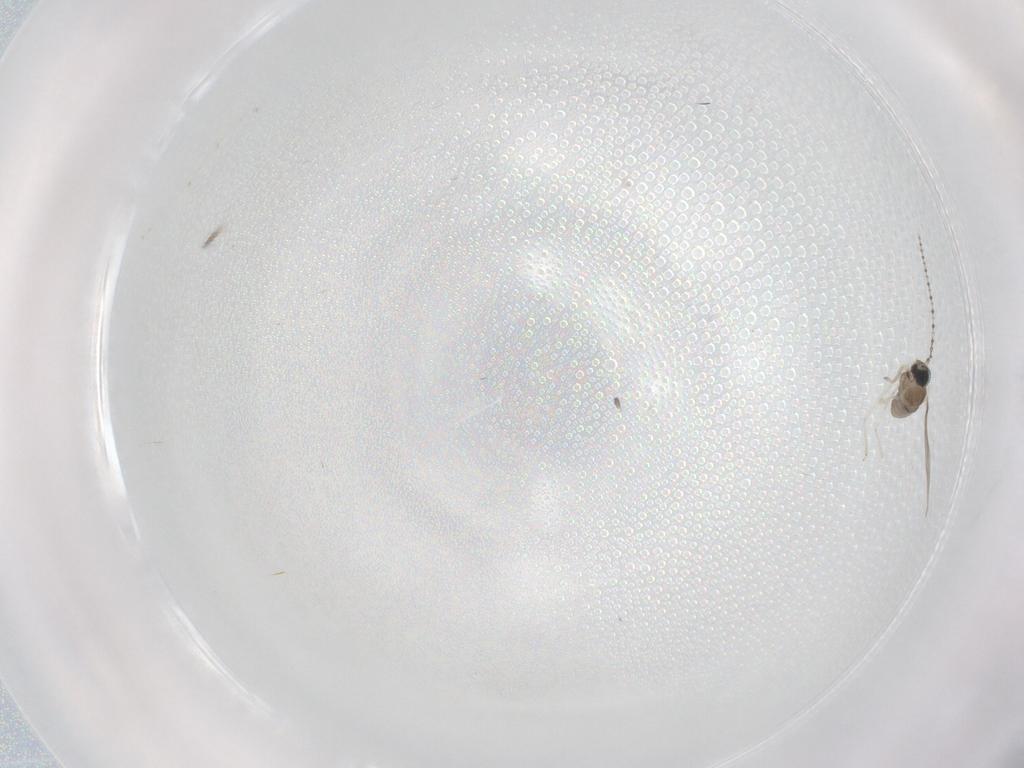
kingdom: Animalia
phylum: Arthropoda
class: Insecta
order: Diptera
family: Cecidomyiidae
